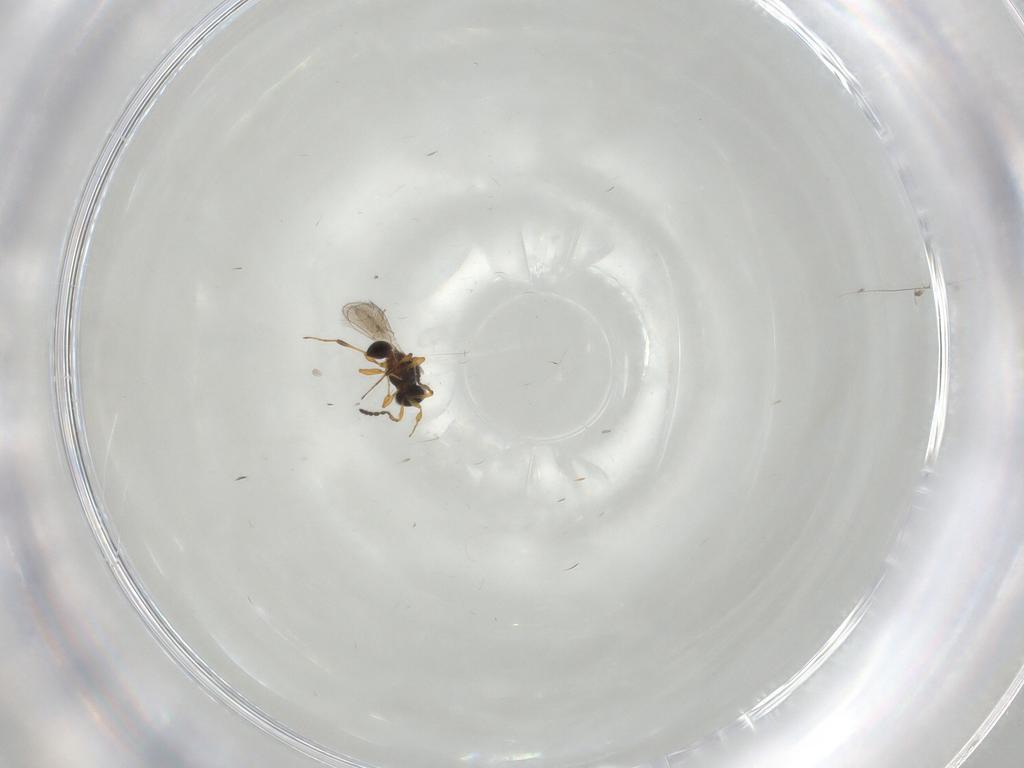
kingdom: Animalia
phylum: Arthropoda
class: Insecta
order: Hymenoptera
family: Platygastridae
